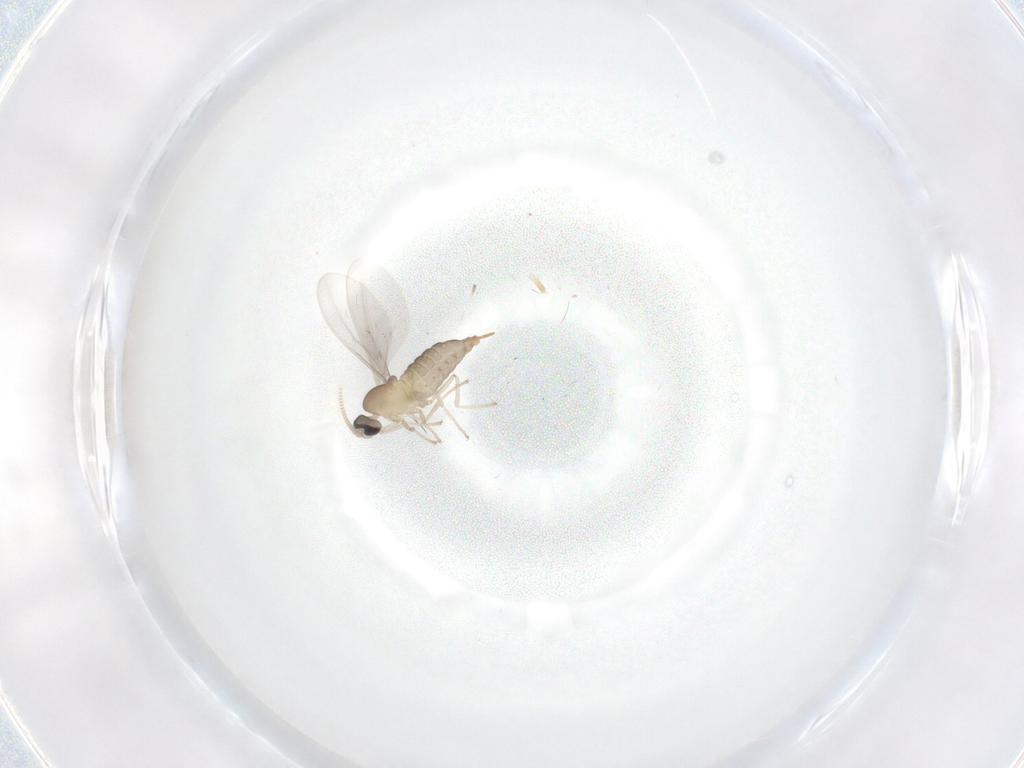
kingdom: Animalia
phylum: Arthropoda
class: Insecta
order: Diptera
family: Cecidomyiidae
